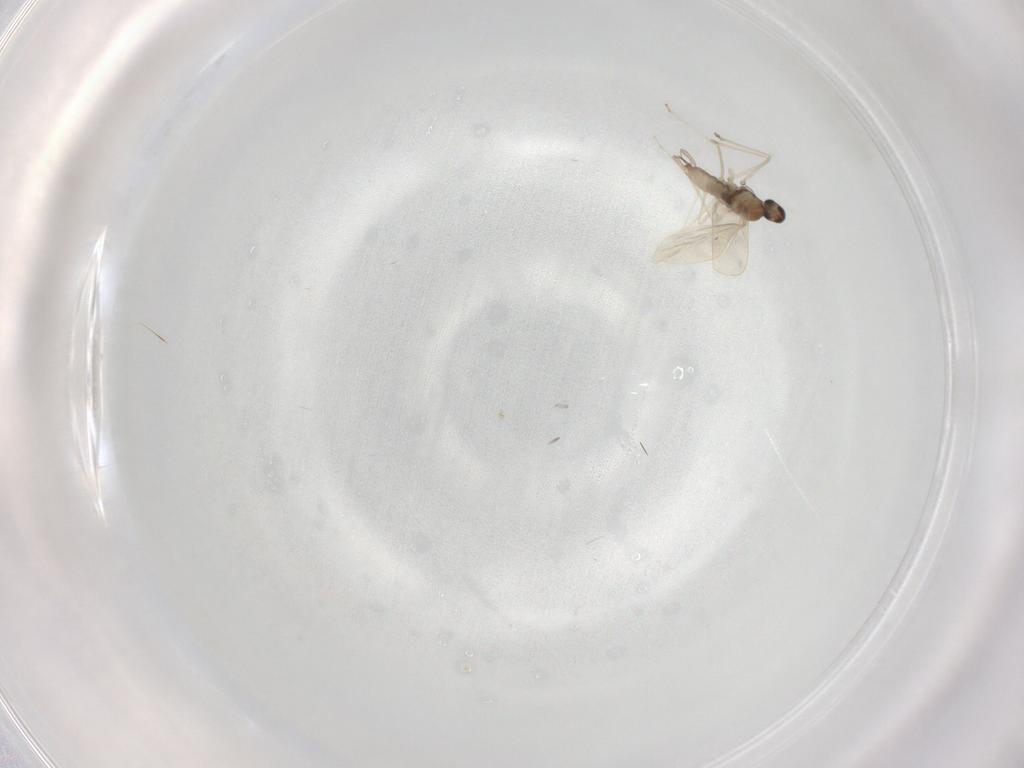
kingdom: Animalia
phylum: Arthropoda
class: Insecta
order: Diptera
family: Cecidomyiidae
